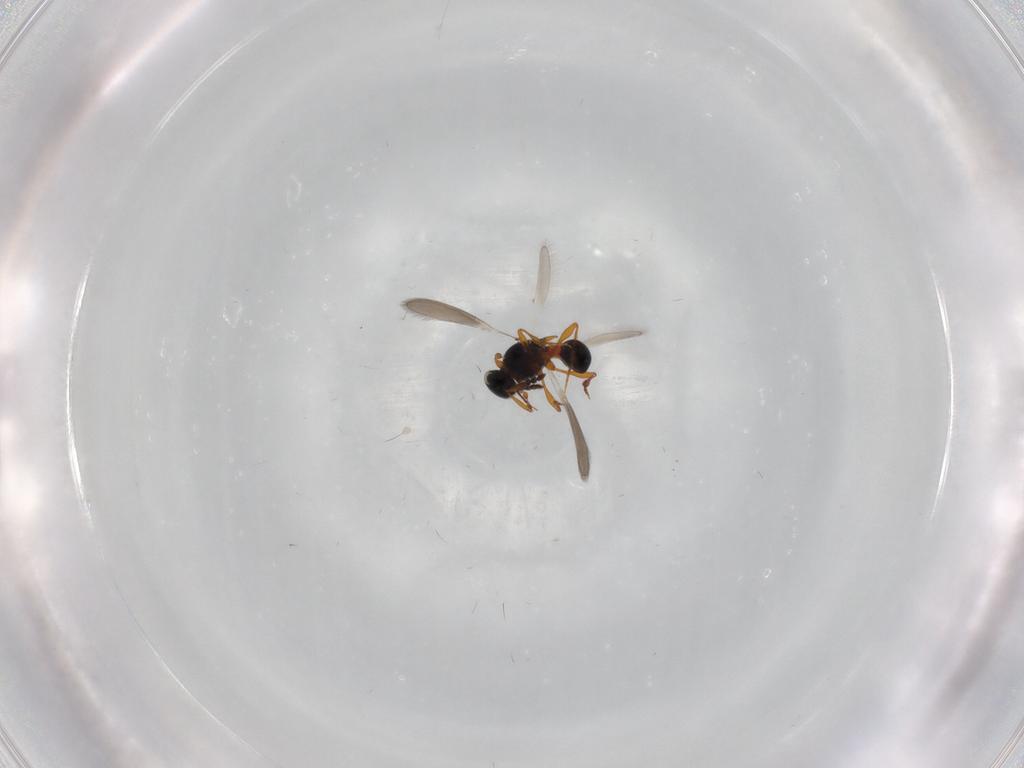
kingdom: Animalia
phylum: Arthropoda
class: Insecta
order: Hymenoptera
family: Platygastridae
